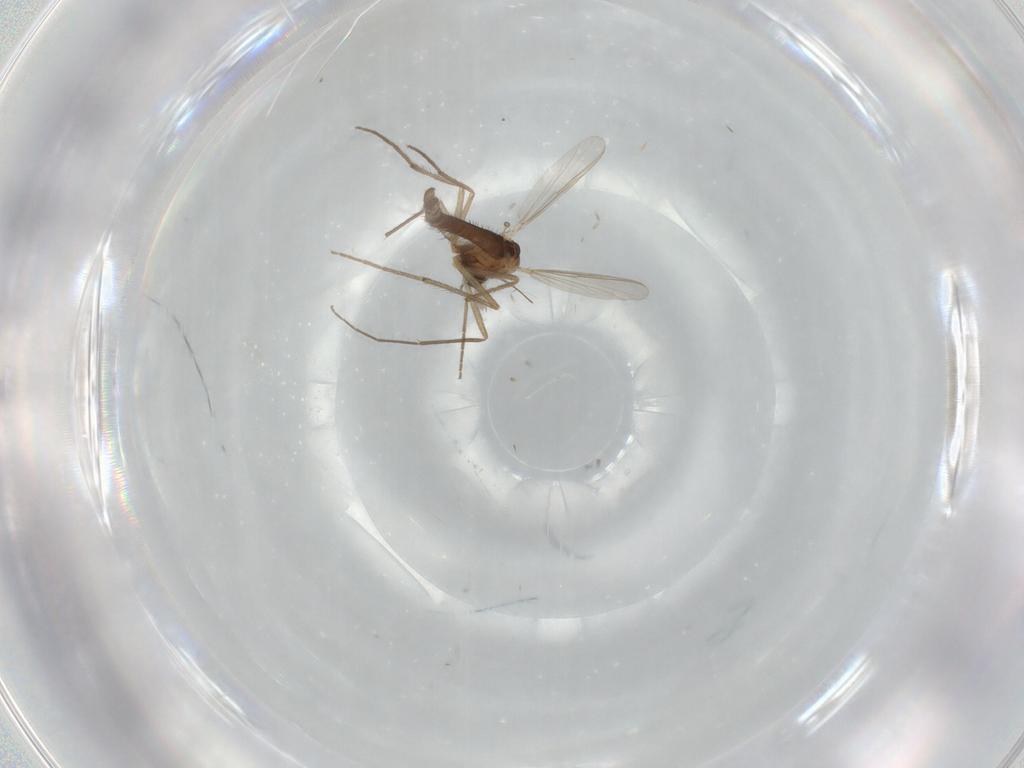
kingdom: Animalia
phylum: Arthropoda
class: Insecta
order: Diptera
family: Chironomidae
